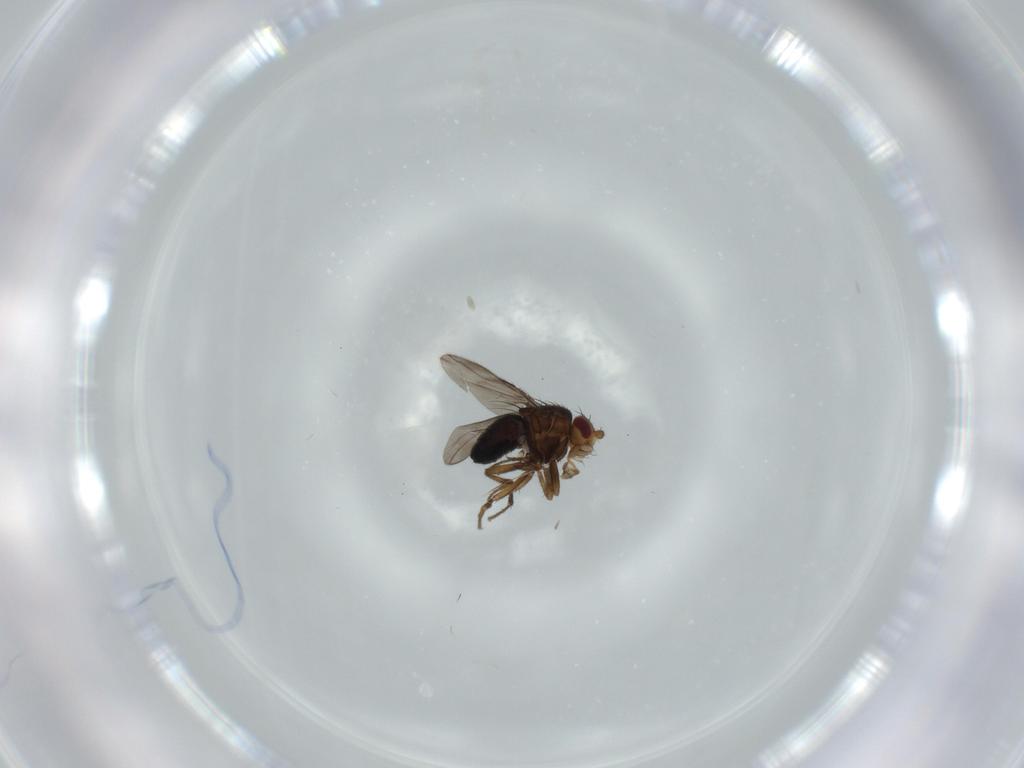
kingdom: Animalia
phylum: Arthropoda
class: Insecta
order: Diptera
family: Sphaeroceridae
